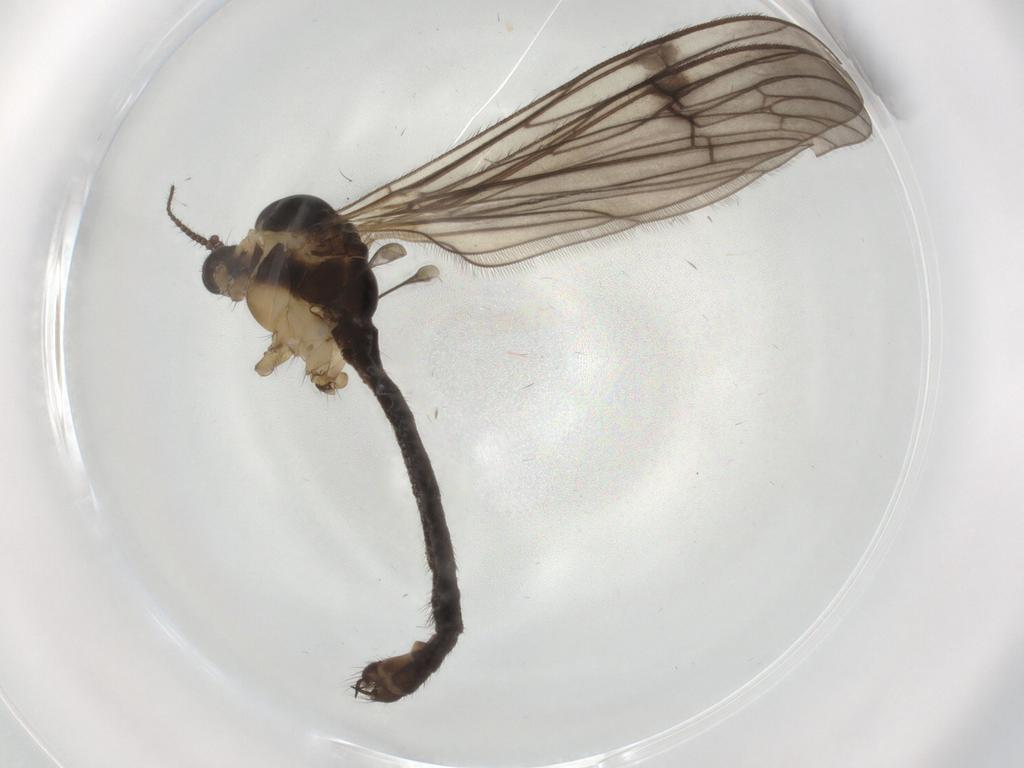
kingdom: Animalia
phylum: Arthropoda
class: Insecta
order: Diptera
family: Limoniidae
